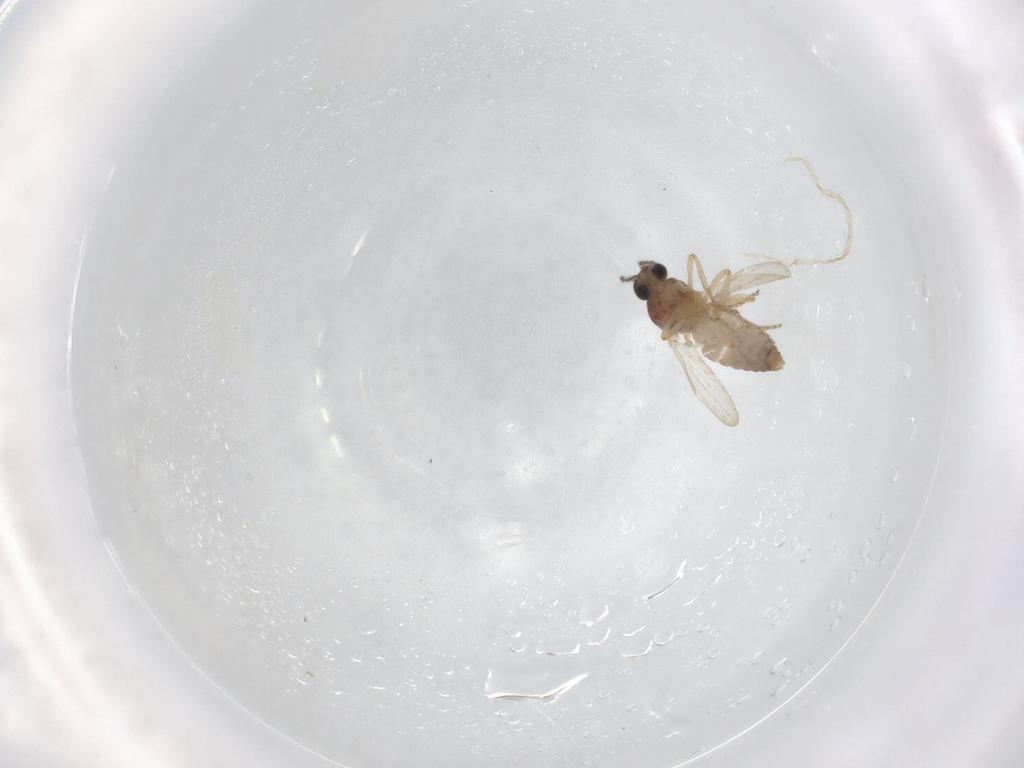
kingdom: Animalia
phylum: Arthropoda
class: Insecta
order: Diptera
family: Ceratopogonidae
